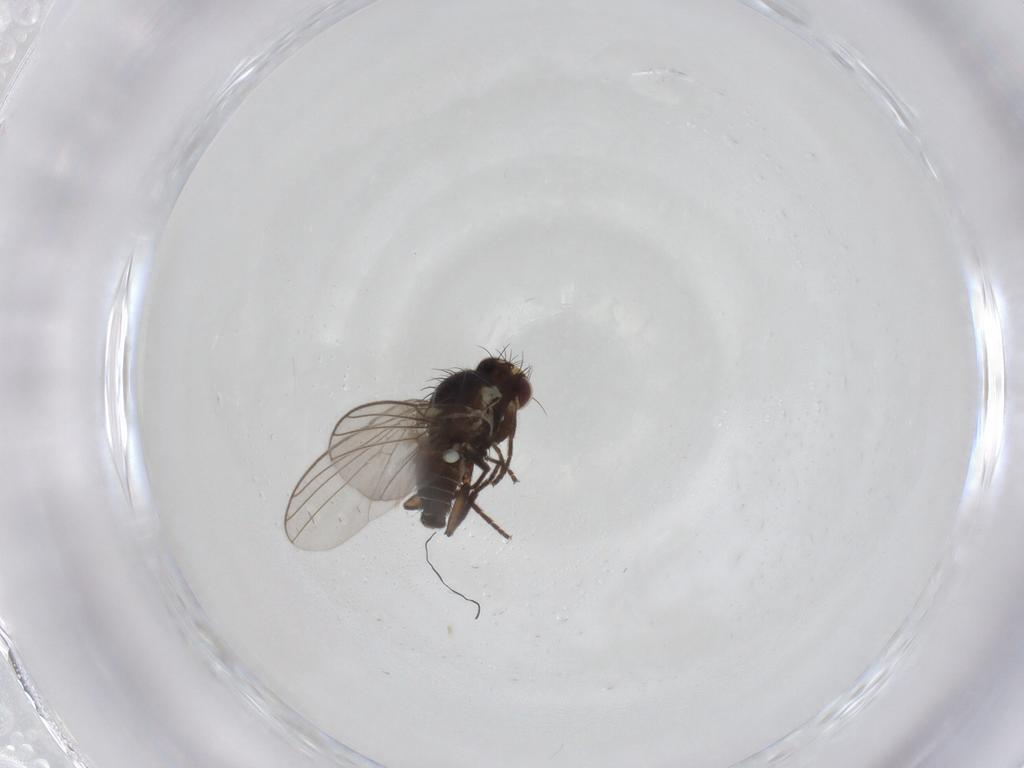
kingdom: Animalia
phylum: Arthropoda
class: Insecta
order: Diptera
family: Agromyzidae
